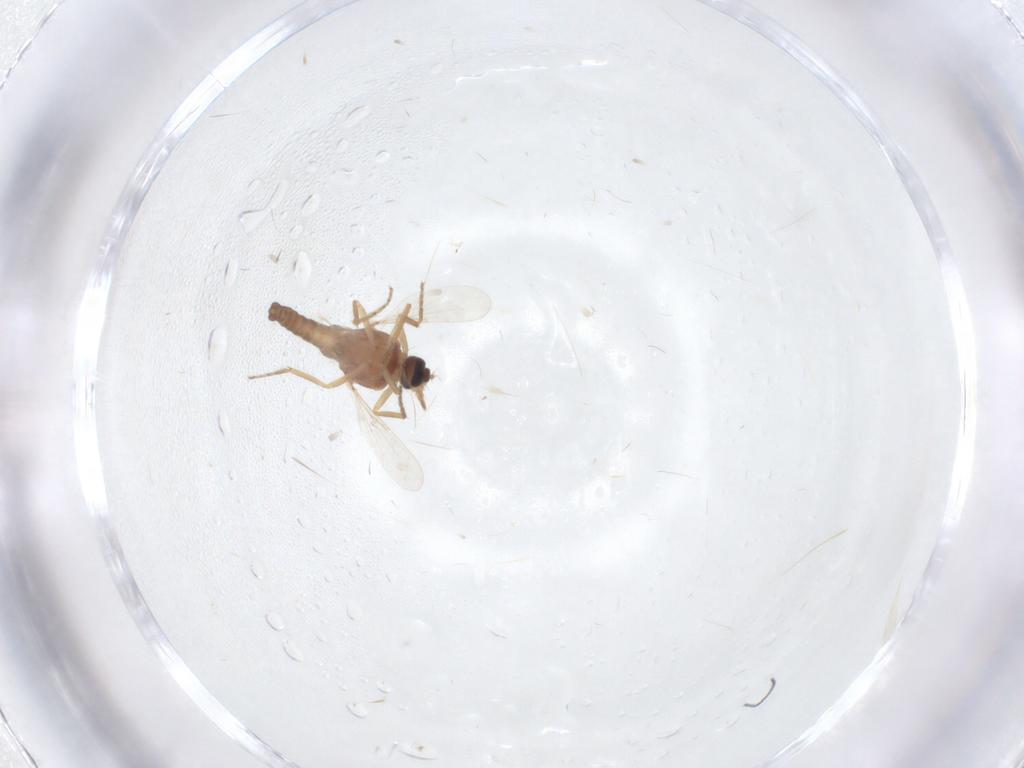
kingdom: Animalia
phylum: Arthropoda
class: Insecta
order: Diptera
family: Ceratopogonidae
